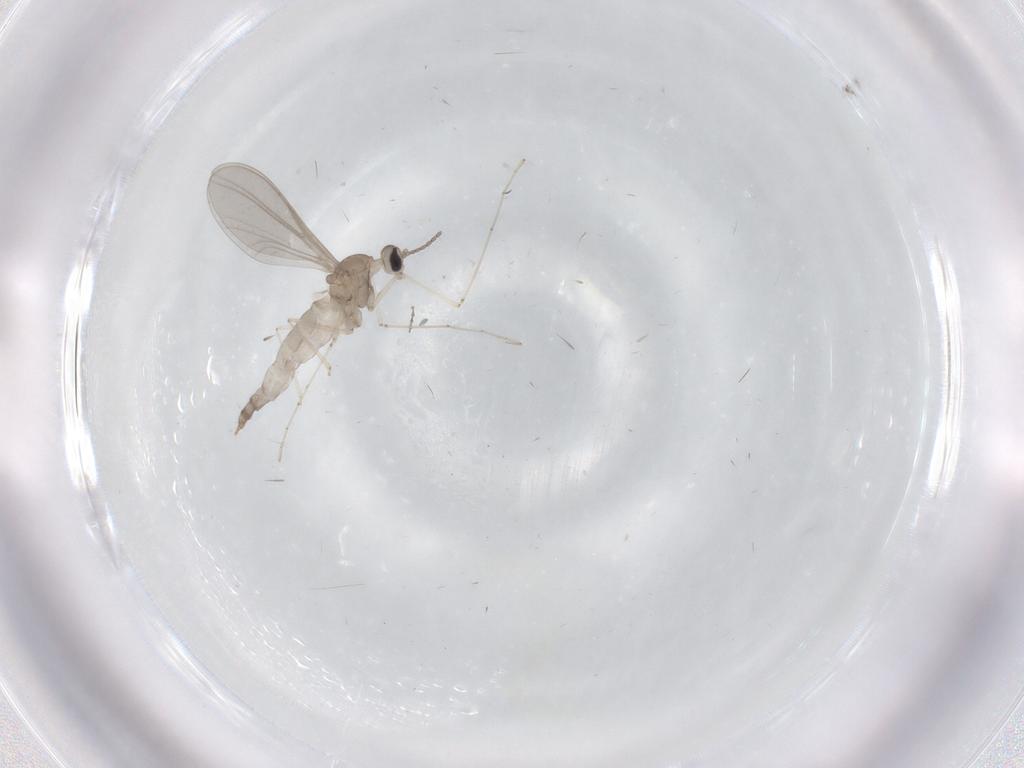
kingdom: Animalia
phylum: Arthropoda
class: Insecta
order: Diptera
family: Cecidomyiidae
